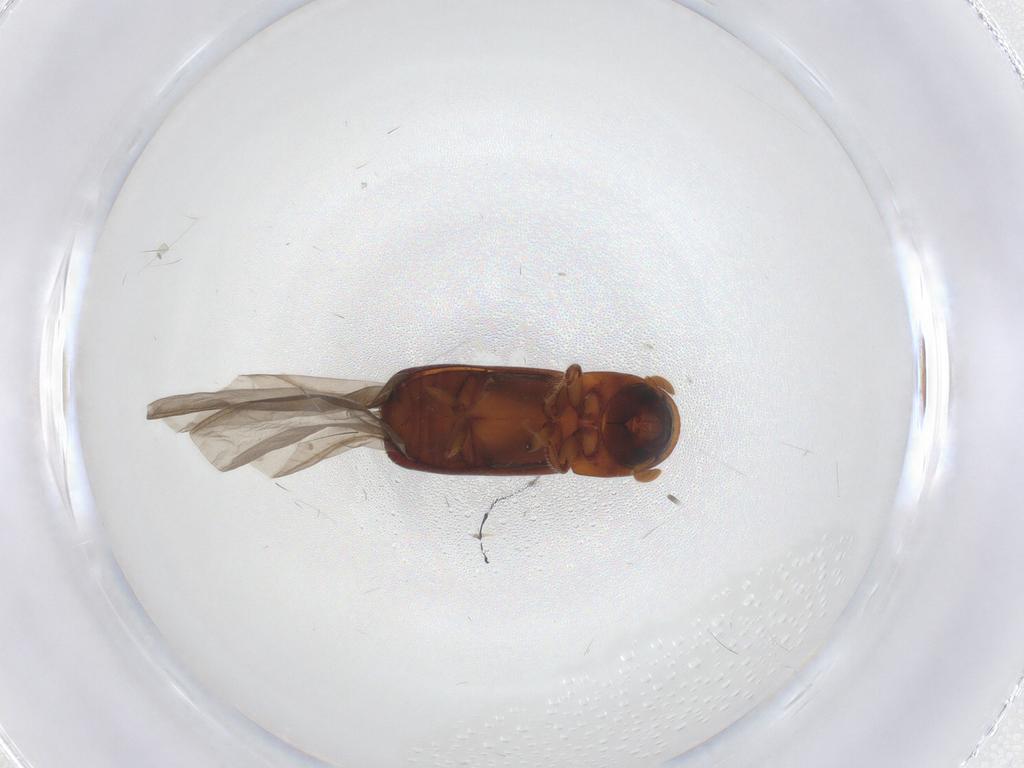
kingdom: Animalia
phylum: Arthropoda
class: Insecta
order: Coleoptera
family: Curculionidae
